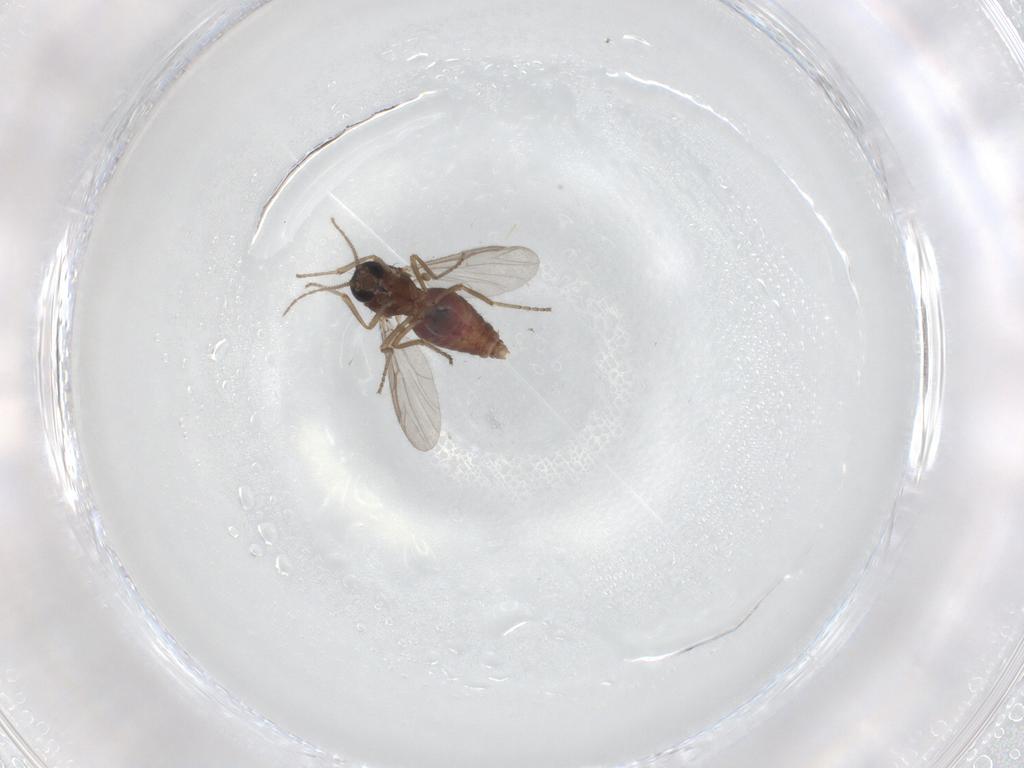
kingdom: Animalia
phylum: Arthropoda
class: Insecta
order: Diptera
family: Ceratopogonidae
